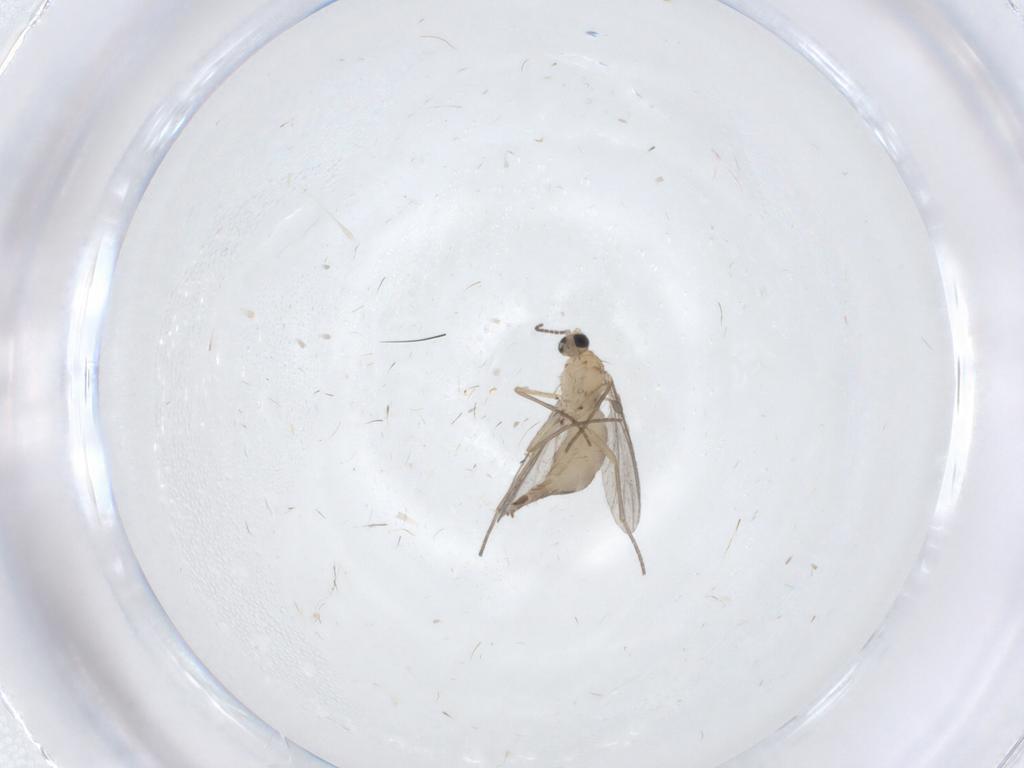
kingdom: Animalia
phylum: Arthropoda
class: Insecta
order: Diptera
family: Sciaridae
